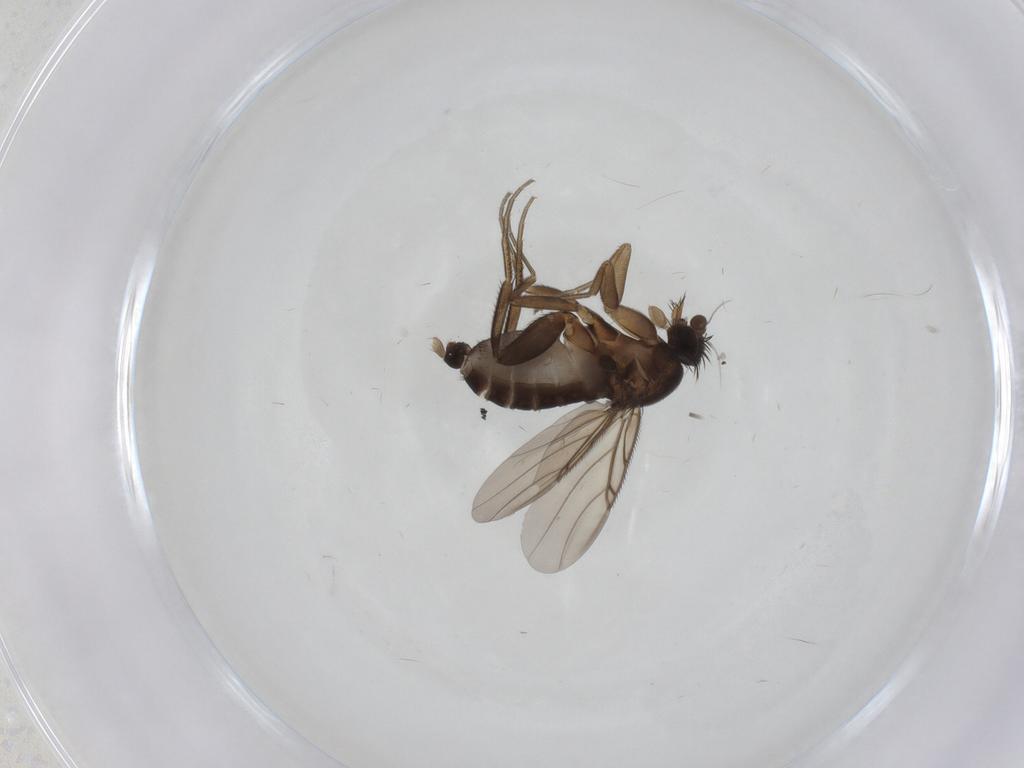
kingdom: Animalia
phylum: Arthropoda
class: Insecta
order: Diptera
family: Phoridae
